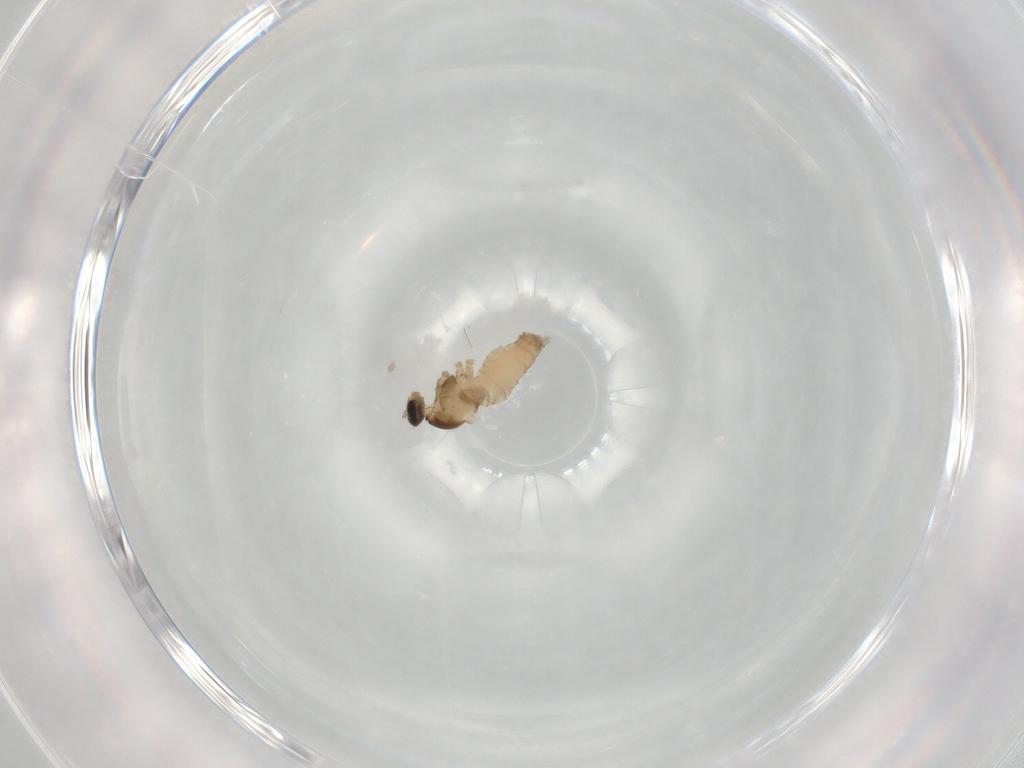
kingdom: Animalia
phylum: Arthropoda
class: Insecta
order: Diptera
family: Cecidomyiidae
